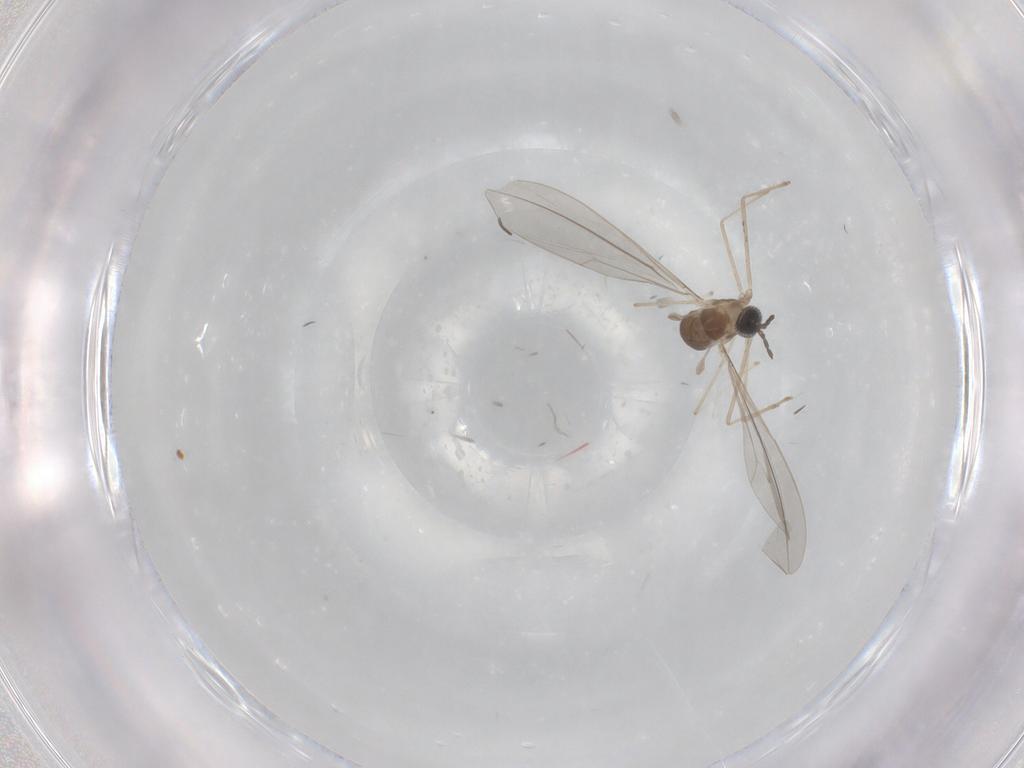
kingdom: Animalia
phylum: Arthropoda
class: Insecta
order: Diptera
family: Cecidomyiidae
